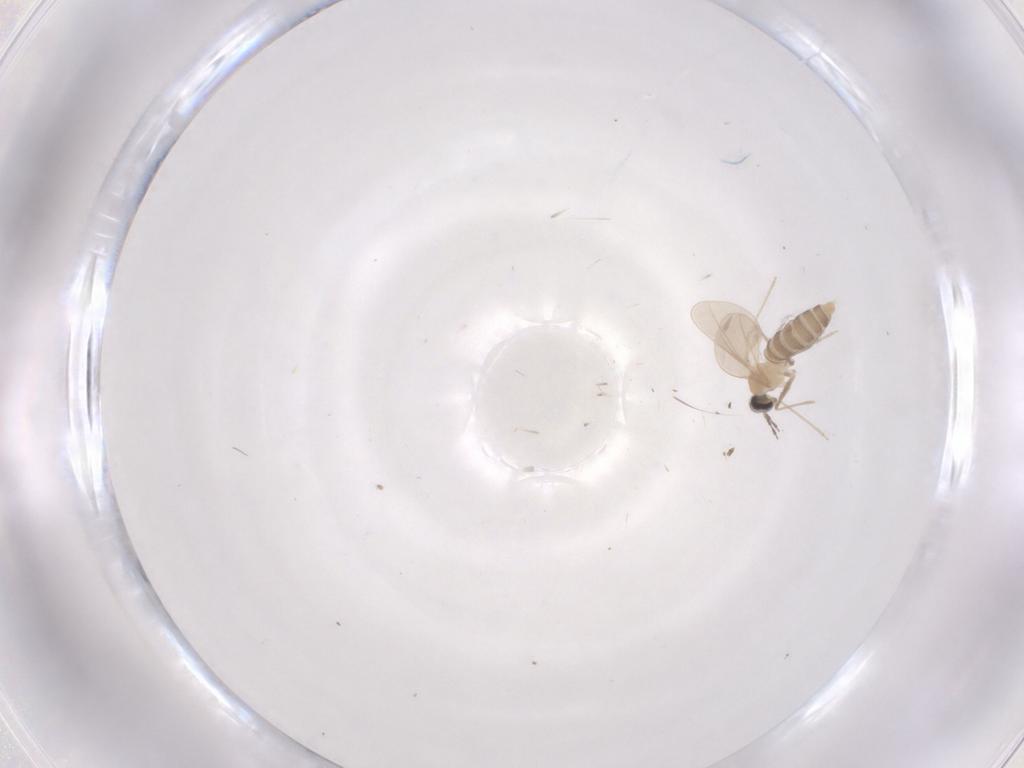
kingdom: Animalia
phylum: Arthropoda
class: Insecta
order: Diptera
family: Cecidomyiidae
